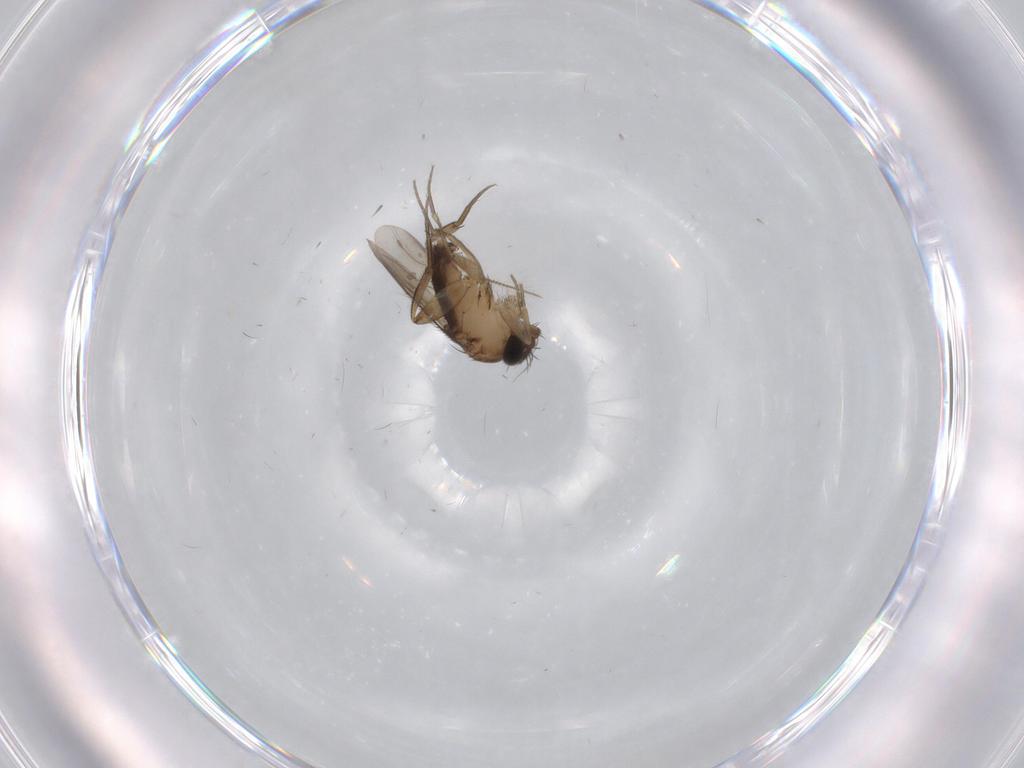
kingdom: Animalia
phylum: Arthropoda
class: Insecta
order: Diptera
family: Phoridae
